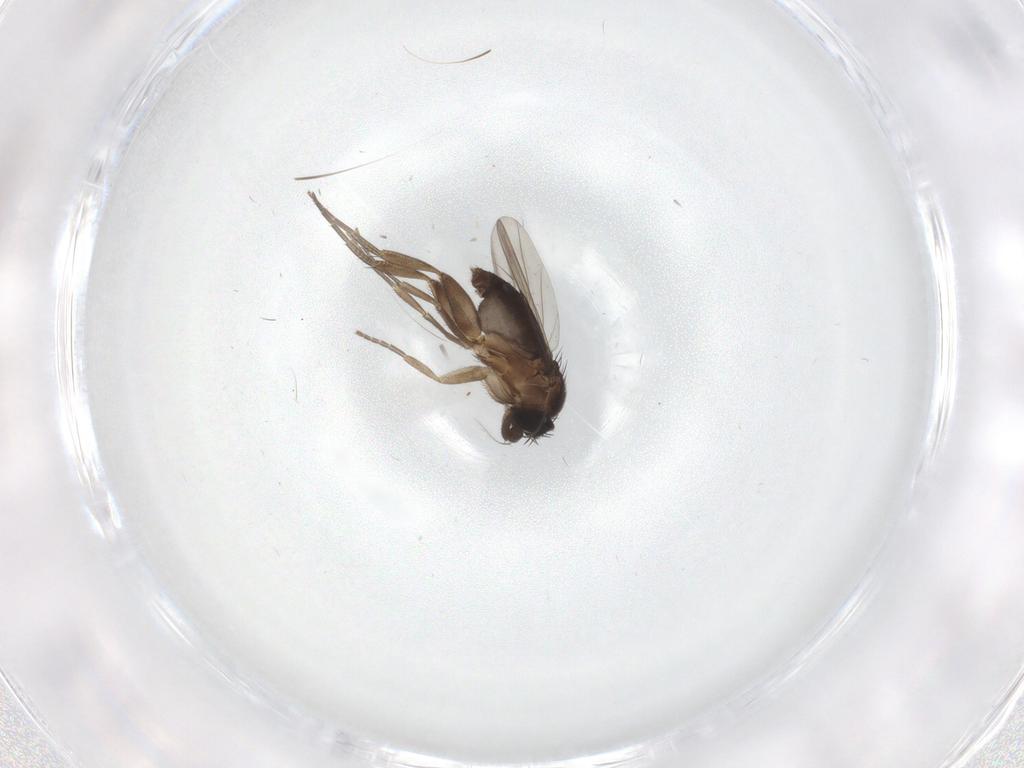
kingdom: Animalia
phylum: Arthropoda
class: Insecta
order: Diptera
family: Phoridae
